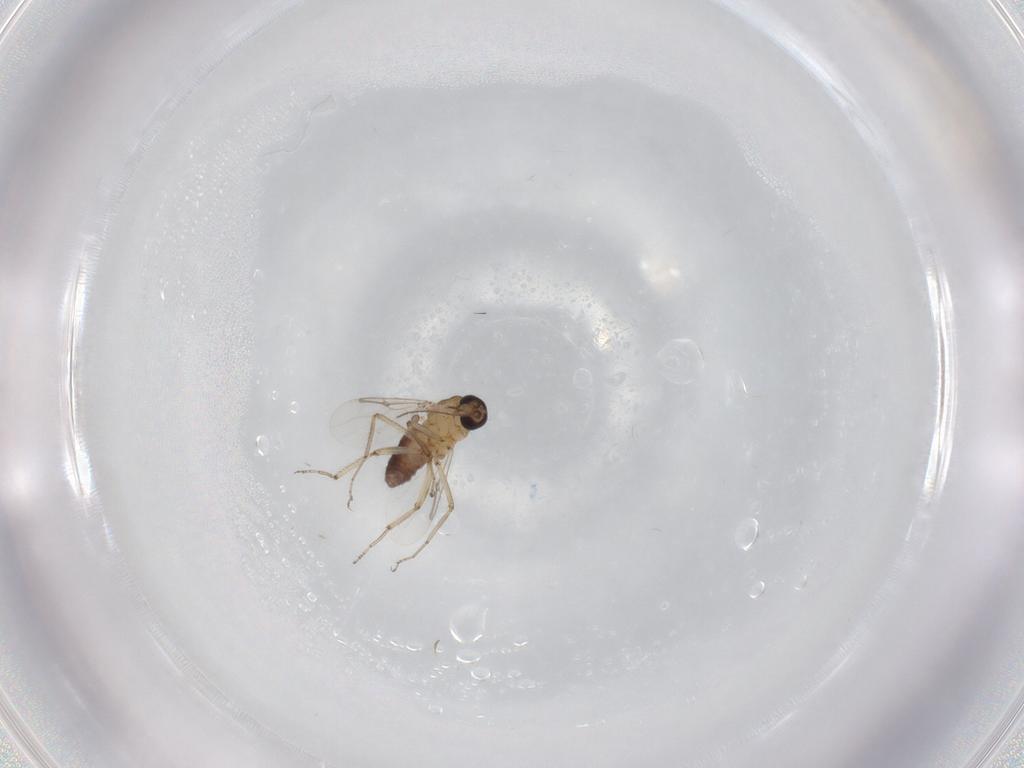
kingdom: Animalia
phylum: Arthropoda
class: Insecta
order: Diptera
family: Ceratopogonidae
